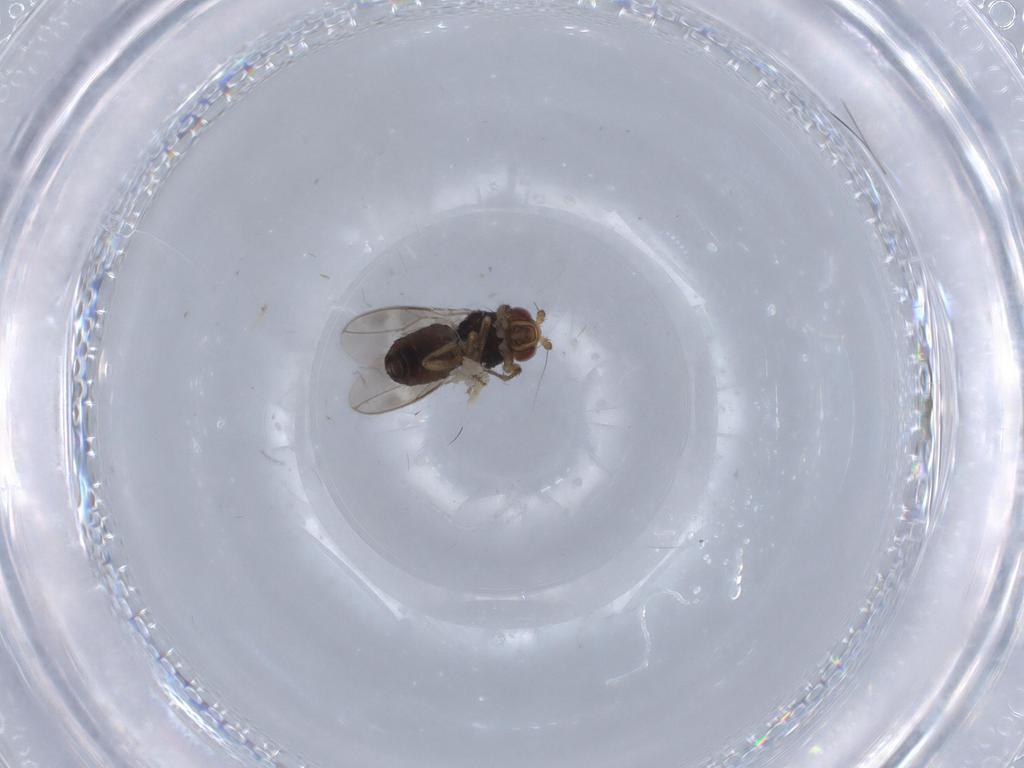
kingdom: Animalia
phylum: Arthropoda
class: Insecta
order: Diptera
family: Sphaeroceridae
